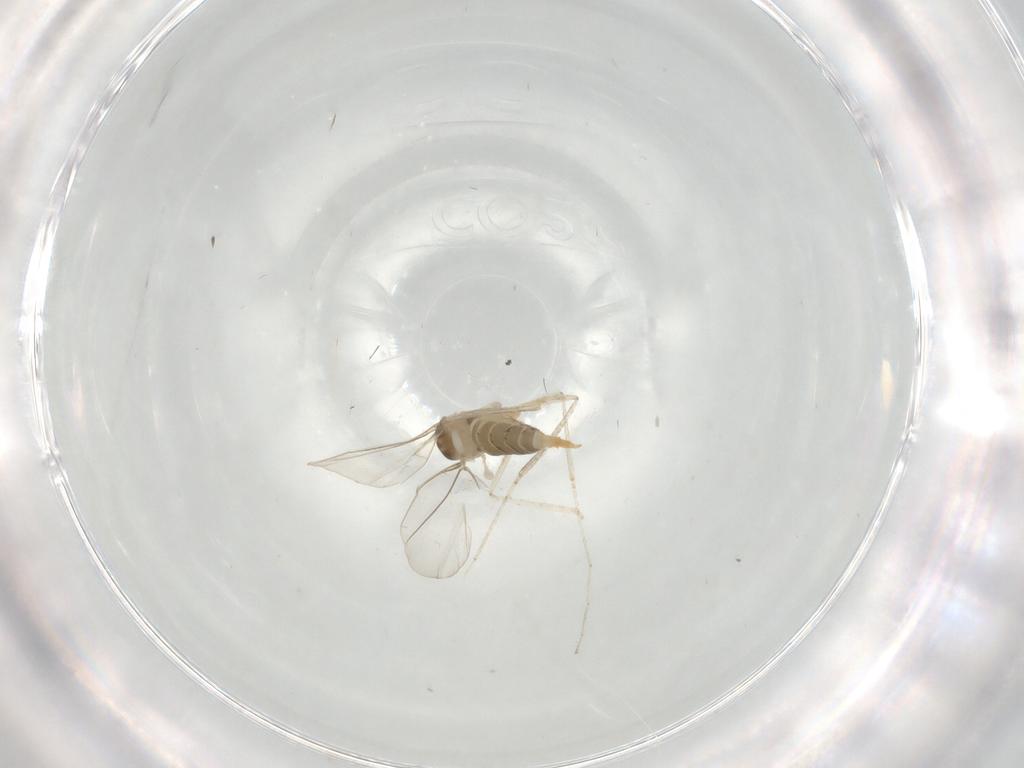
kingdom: Animalia
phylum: Arthropoda
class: Insecta
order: Diptera
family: Cecidomyiidae
